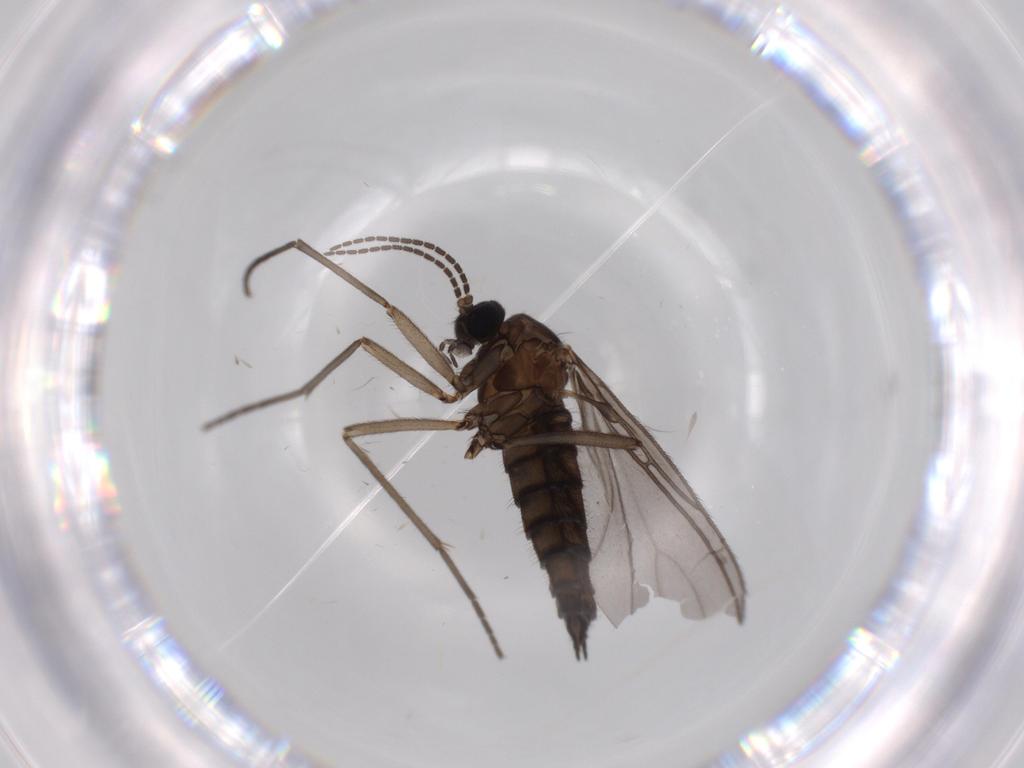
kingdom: Animalia
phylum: Arthropoda
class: Insecta
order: Diptera
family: Sciaridae
